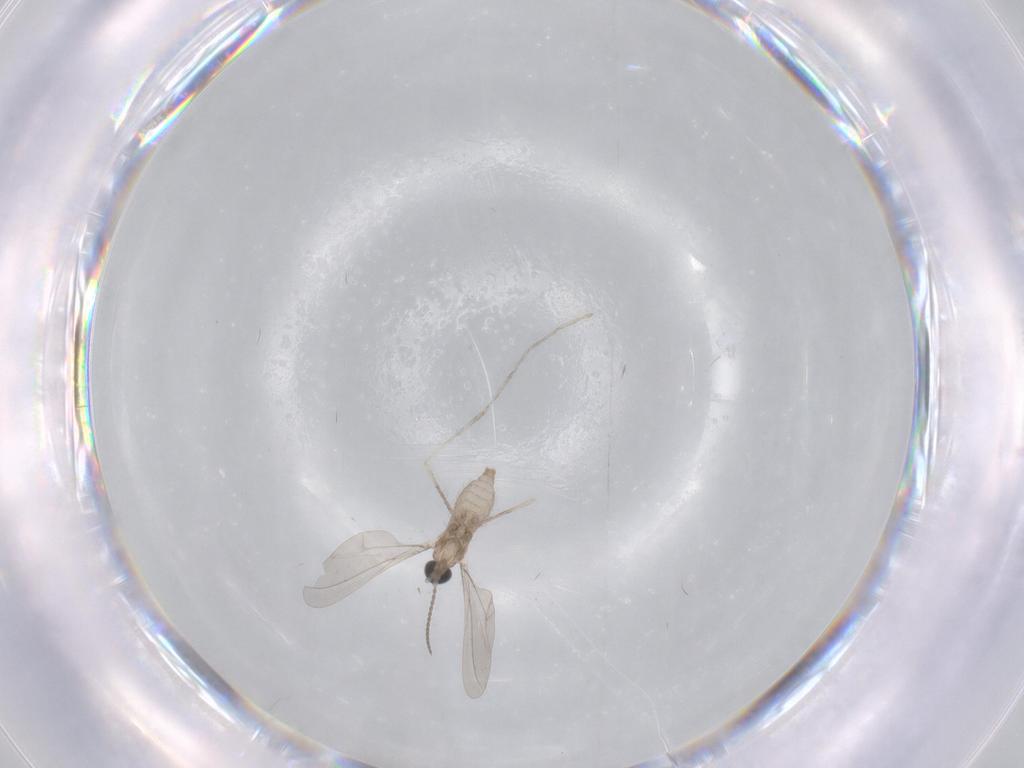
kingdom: Animalia
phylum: Arthropoda
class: Insecta
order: Diptera
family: Cecidomyiidae
